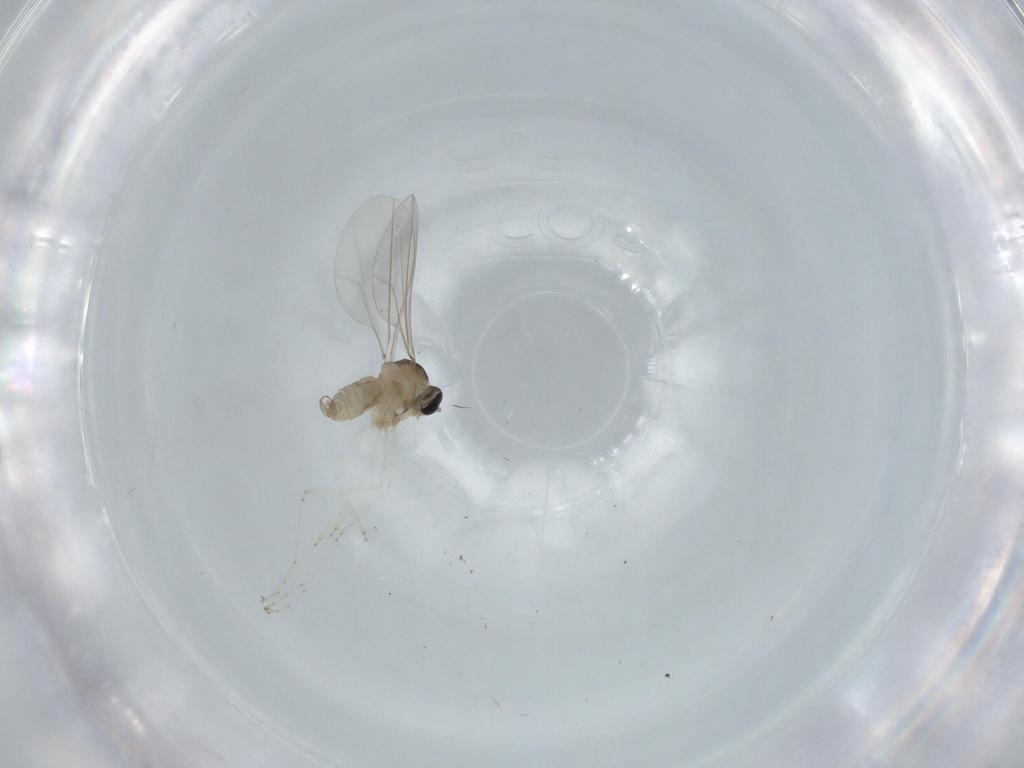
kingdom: Animalia
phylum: Arthropoda
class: Insecta
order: Diptera
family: Cecidomyiidae
